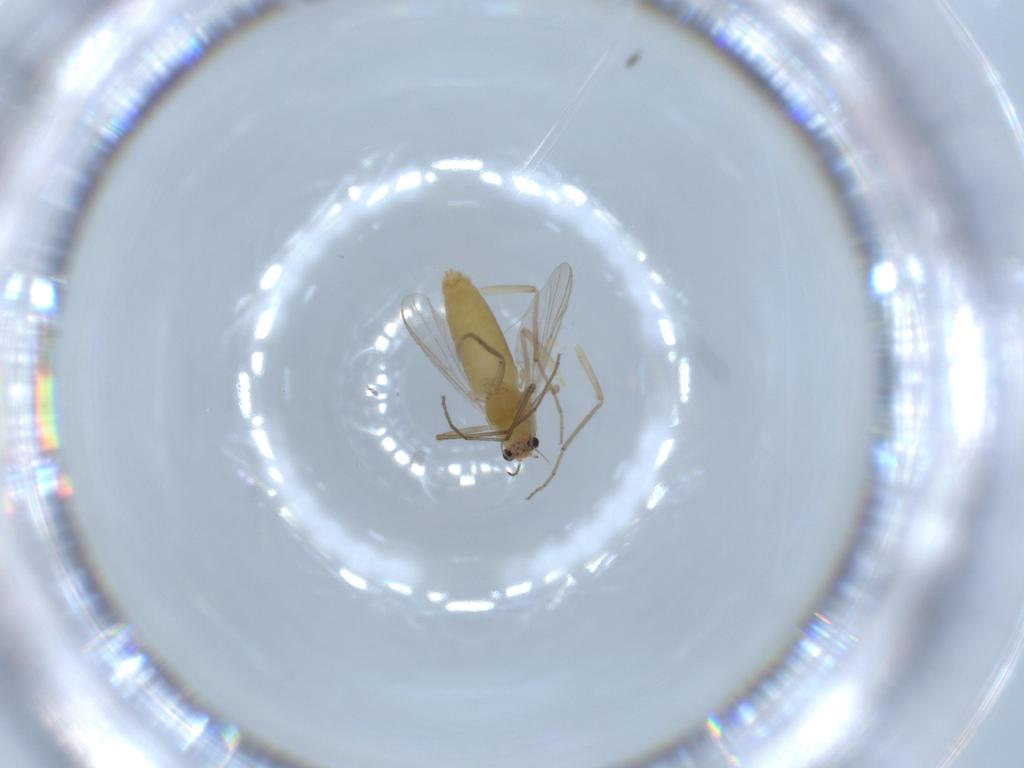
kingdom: Animalia
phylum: Arthropoda
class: Insecta
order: Diptera
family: Chironomidae
